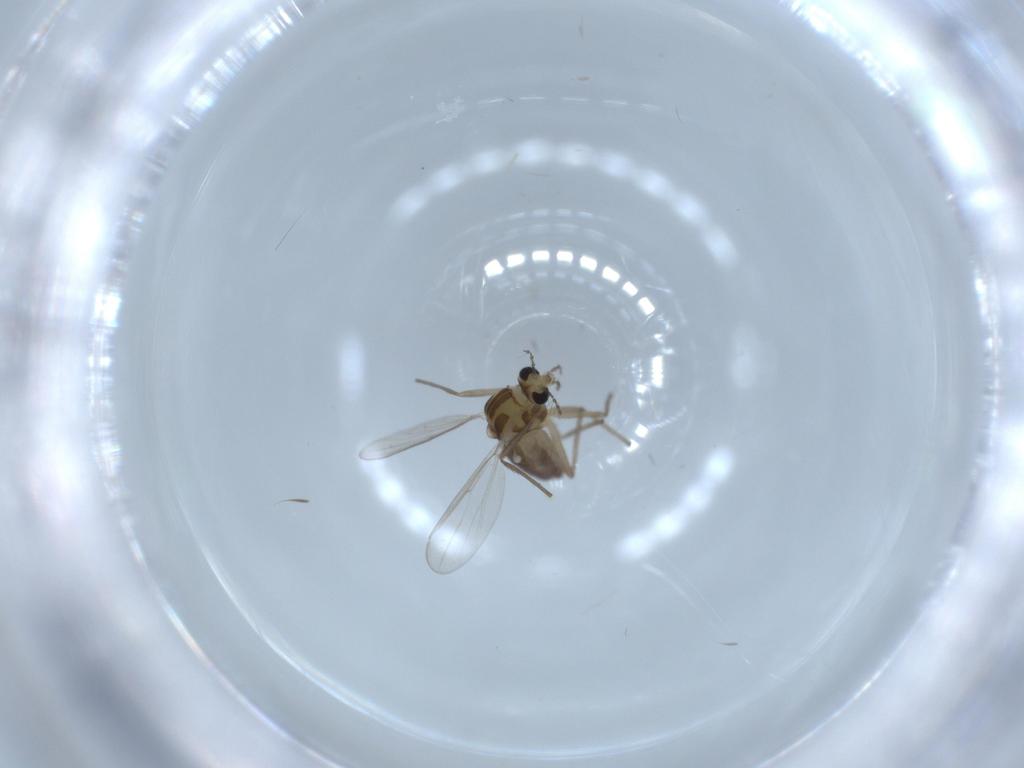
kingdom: Animalia
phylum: Arthropoda
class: Insecta
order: Diptera
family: Chironomidae
